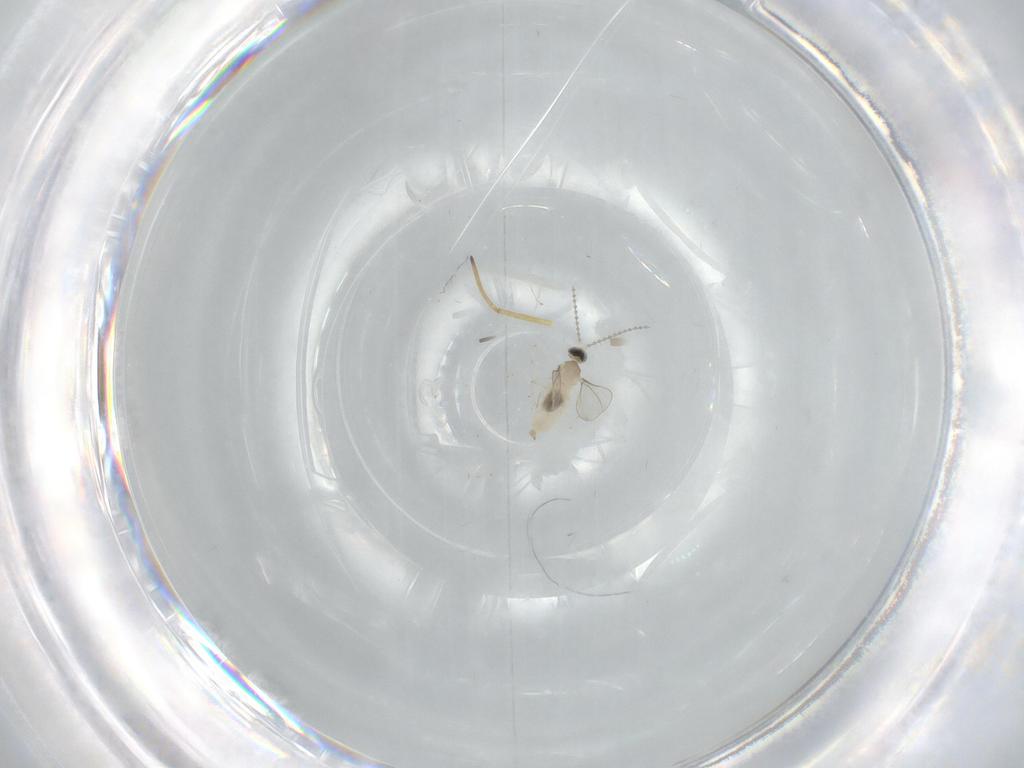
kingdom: Animalia
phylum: Arthropoda
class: Insecta
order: Diptera
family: Cecidomyiidae
